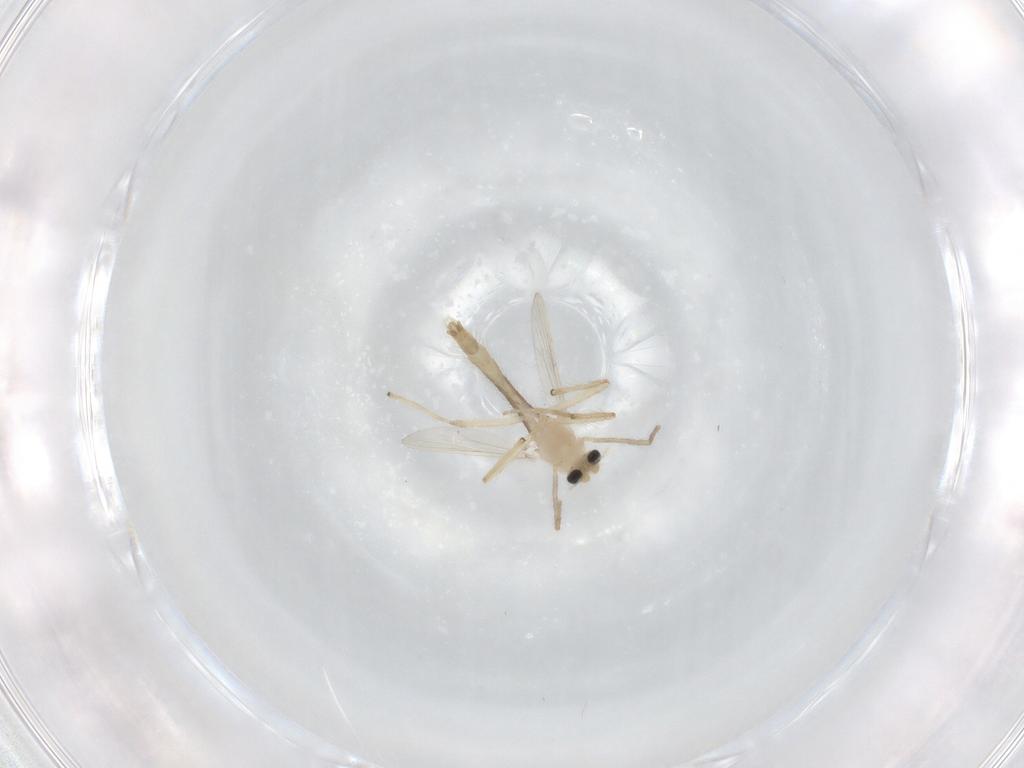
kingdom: Animalia
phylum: Arthropoda
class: Insecta
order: Diptera
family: Chironomidae
